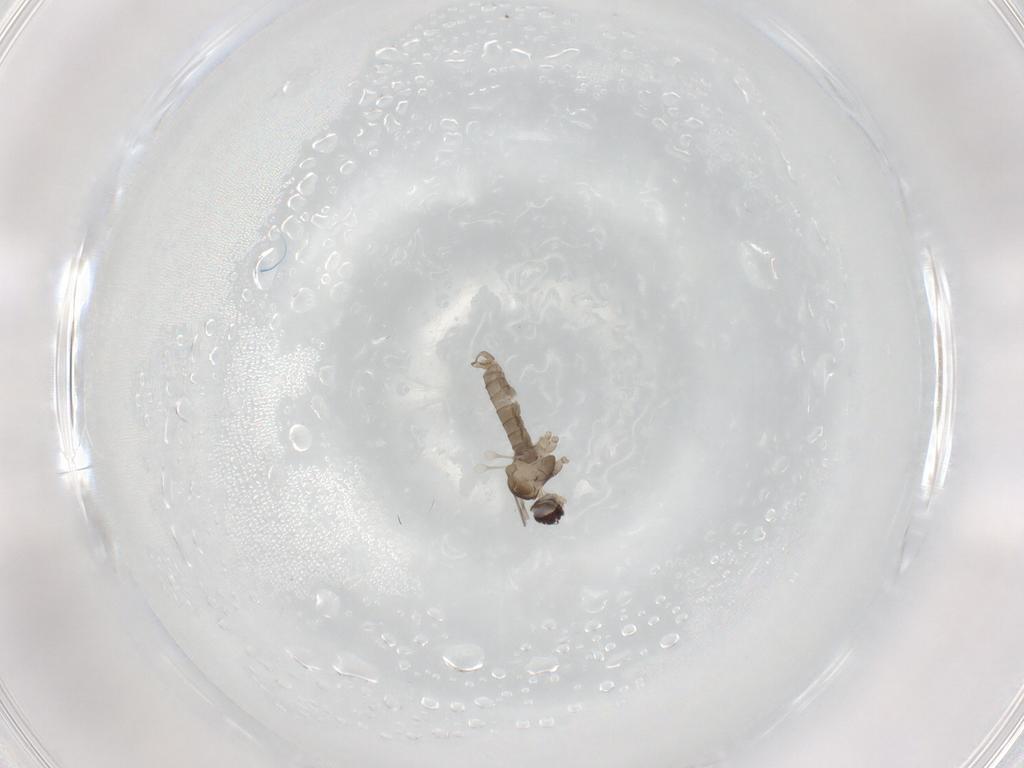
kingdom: Animalia
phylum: Arthropoda
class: Insecta
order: Diptera
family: Cecidomyiidae
